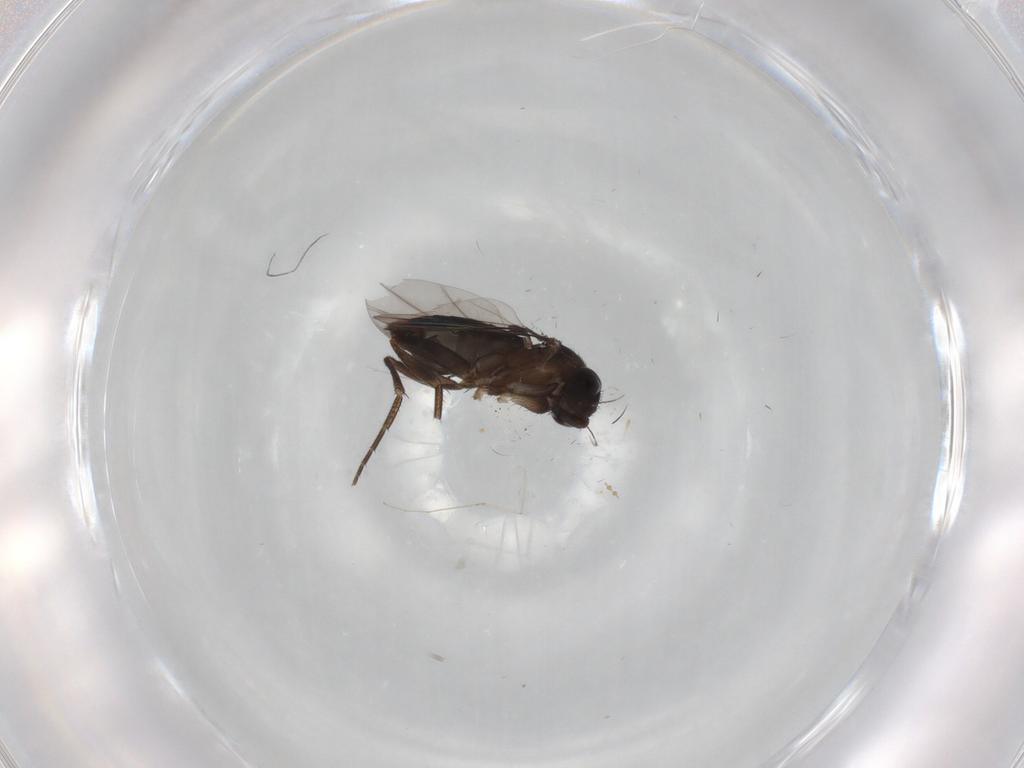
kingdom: Animalia
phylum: Arthropoda
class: Insecta
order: Diptera
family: Phoridae
